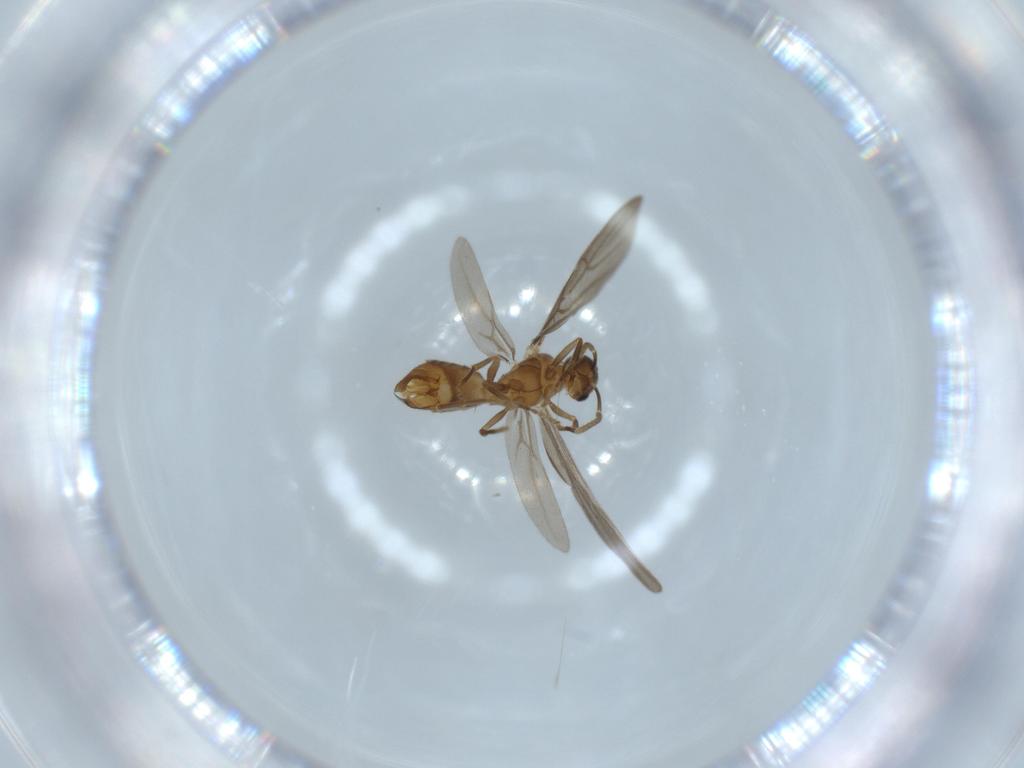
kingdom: Animalia
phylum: Arthropoda
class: Insecta
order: Hymenoptera
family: Formicidae
